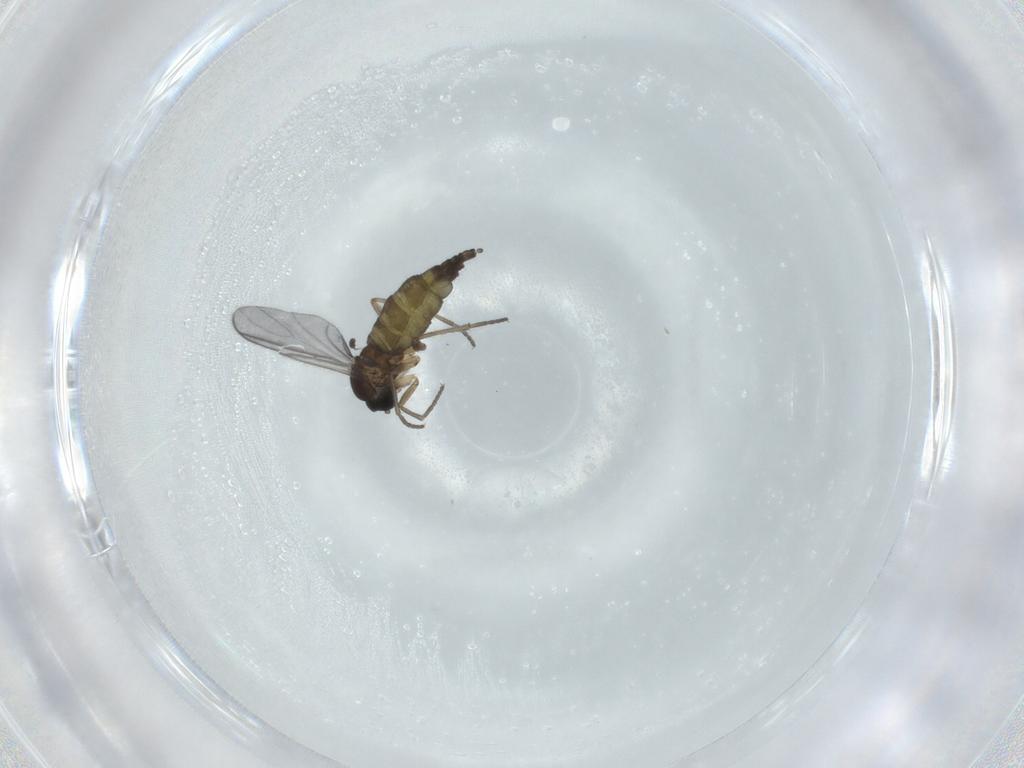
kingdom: Animalia
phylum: Arthropoda
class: Insecta
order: Diptera
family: Sciaridae
